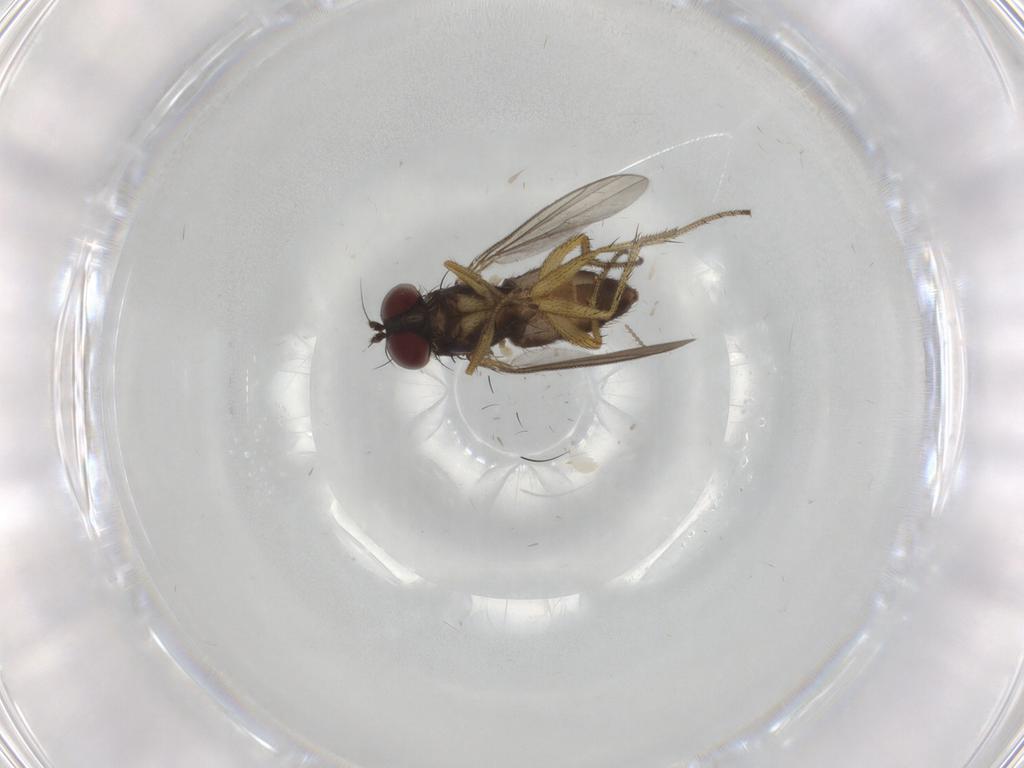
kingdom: Animalia
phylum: Arthropoda
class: Insecta
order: Diptera
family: Ceratopogonidae
